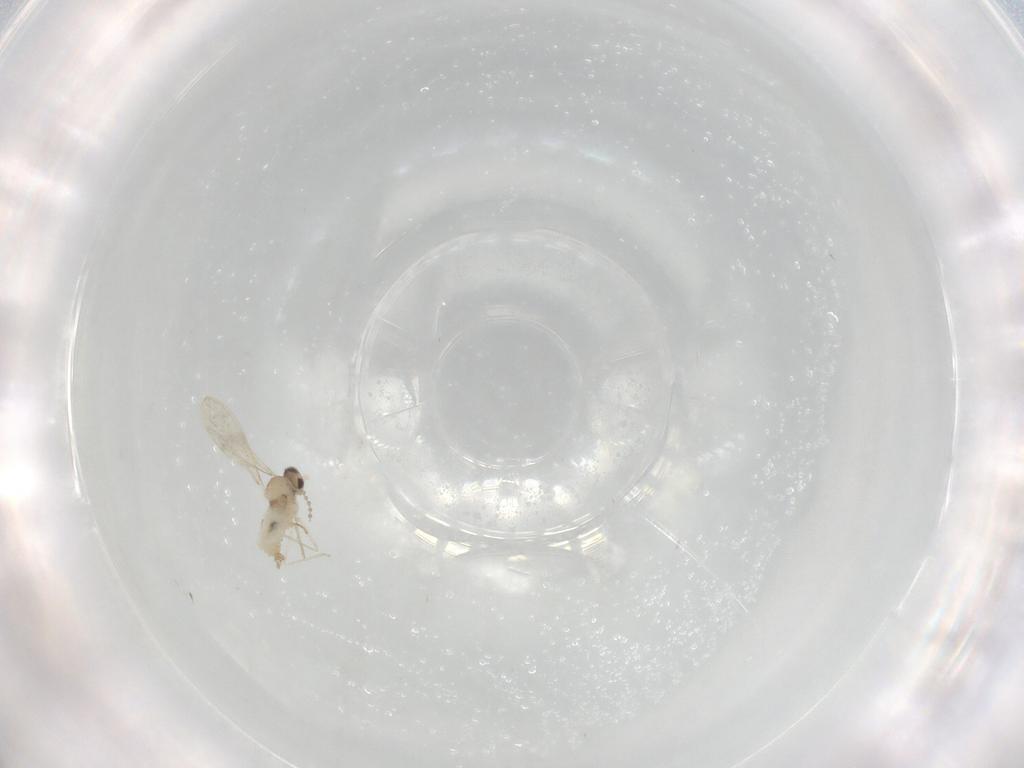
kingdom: Animalia
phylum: Arthropoda
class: Insecta
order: Diptera
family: Cecidomyiidae
